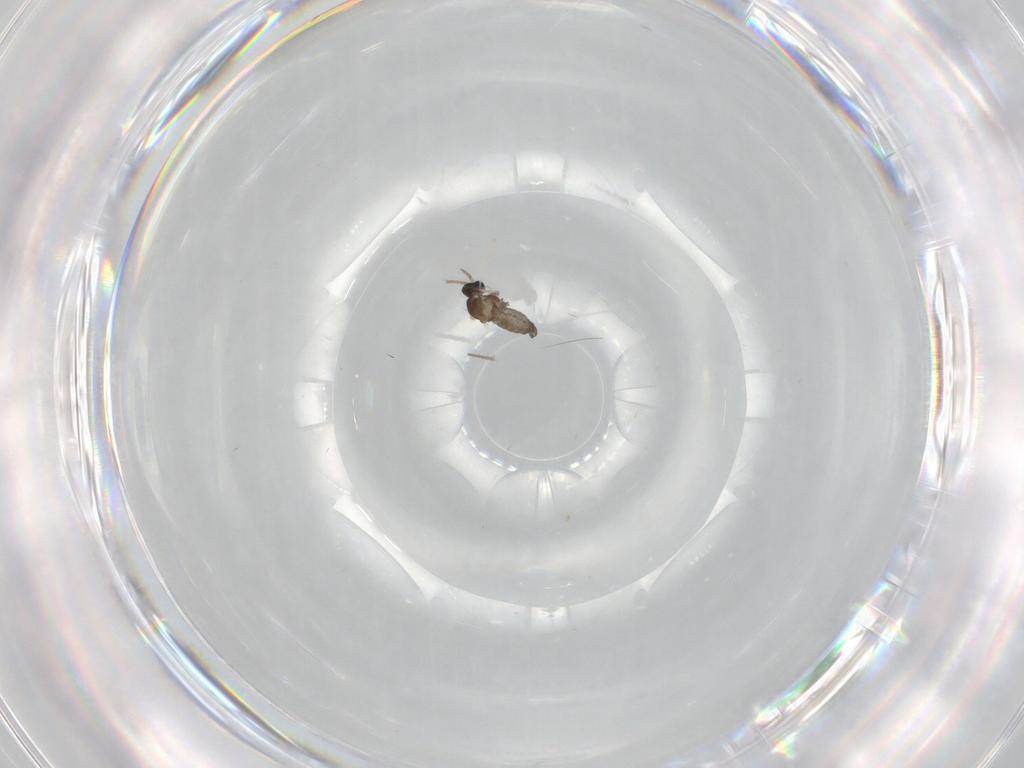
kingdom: Animalia
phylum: Arthropoda
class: Insecta
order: Diptera
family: Cecidomyiidae
